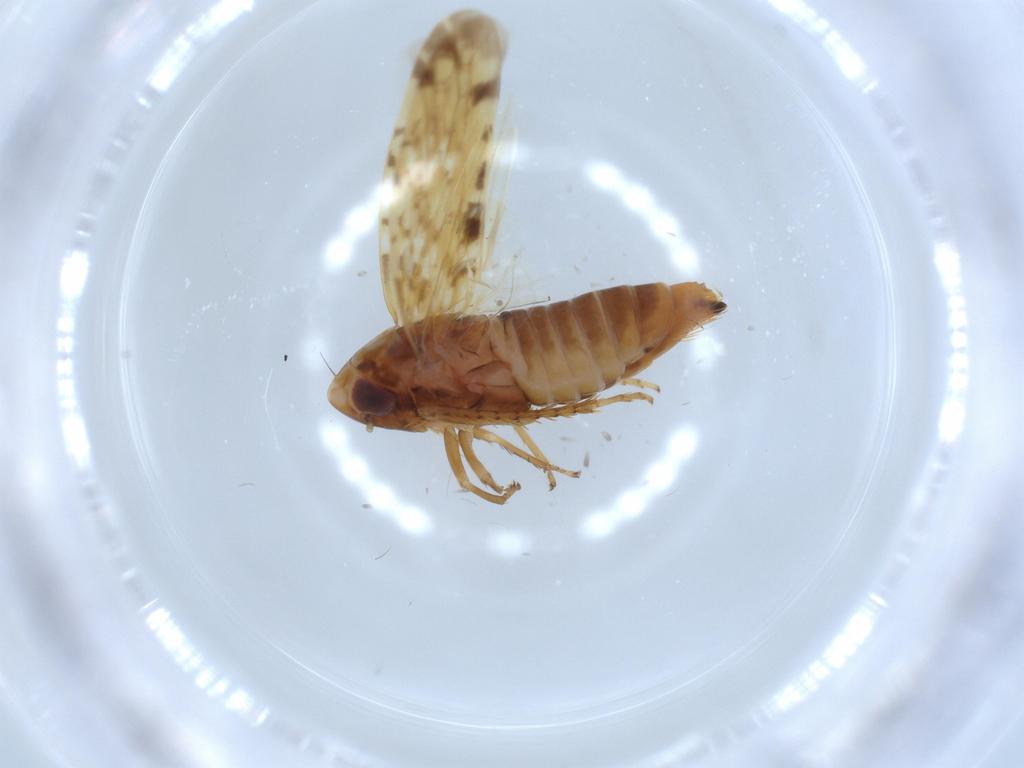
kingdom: Animalia
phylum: Arthropoda
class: Insecta
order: Hemiptera
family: Cicadellidae
